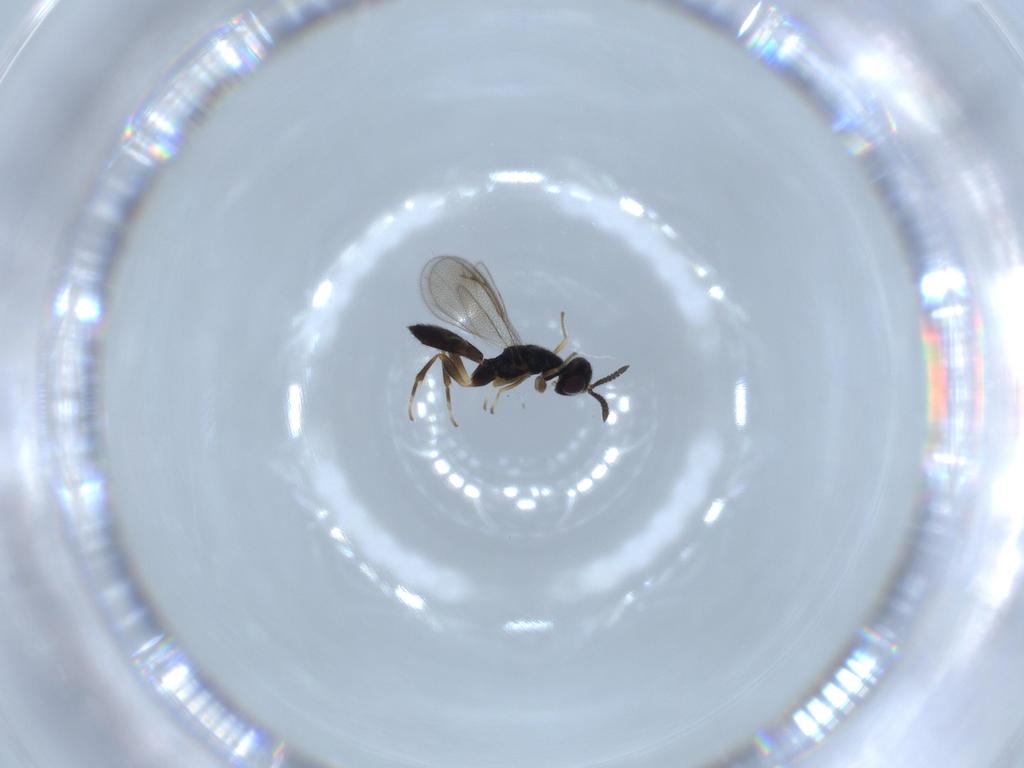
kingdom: Animalia
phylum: Arthropoda
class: Insecta
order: Hymenoptera
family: Cleonyminae
